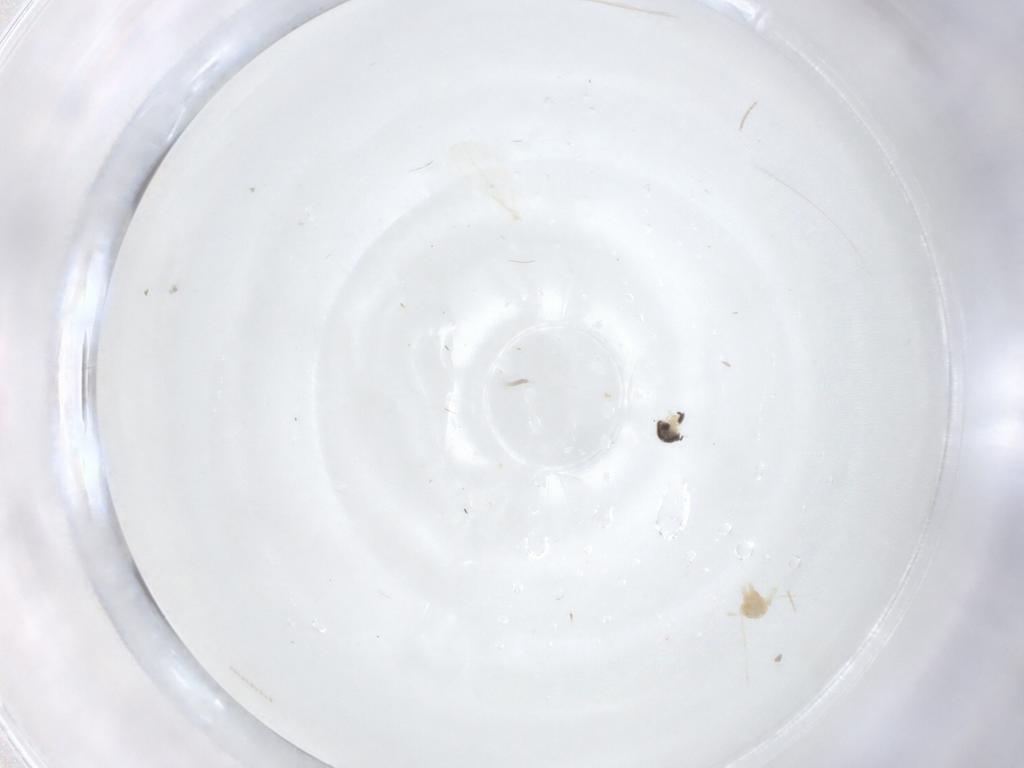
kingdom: Animalia
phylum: Arthropoda
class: Insecta
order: Diptera
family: Cecidomyiidae
